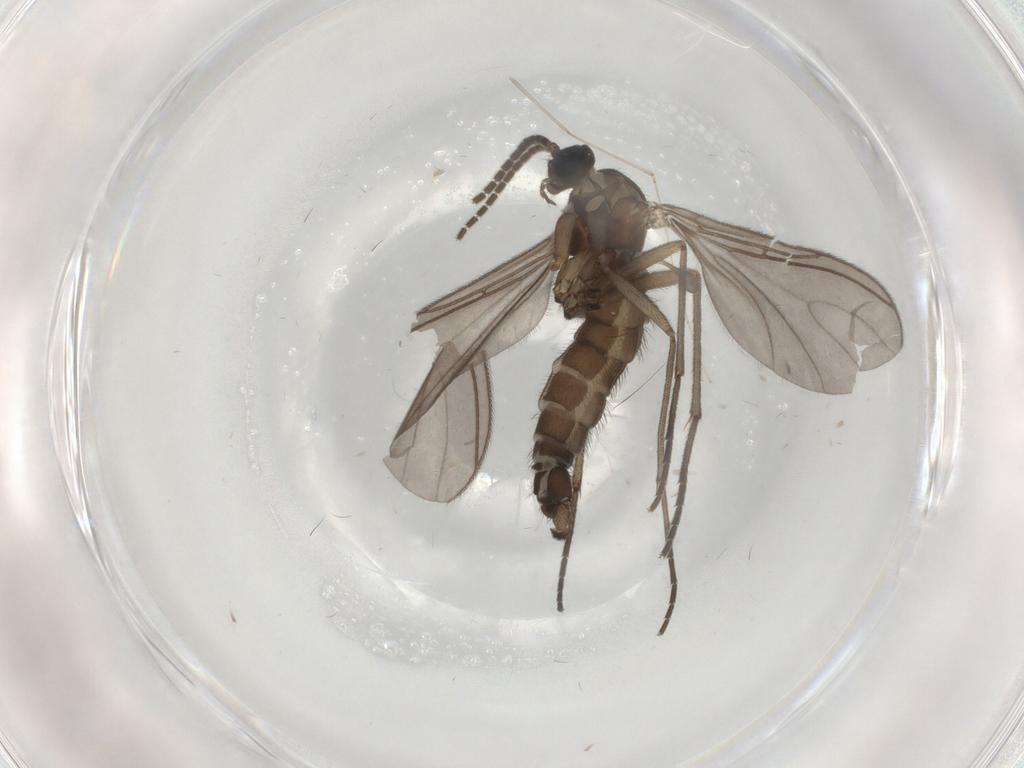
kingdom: Animalia
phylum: Arthropoda
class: Insecta
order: Diptera
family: Sciaridae
